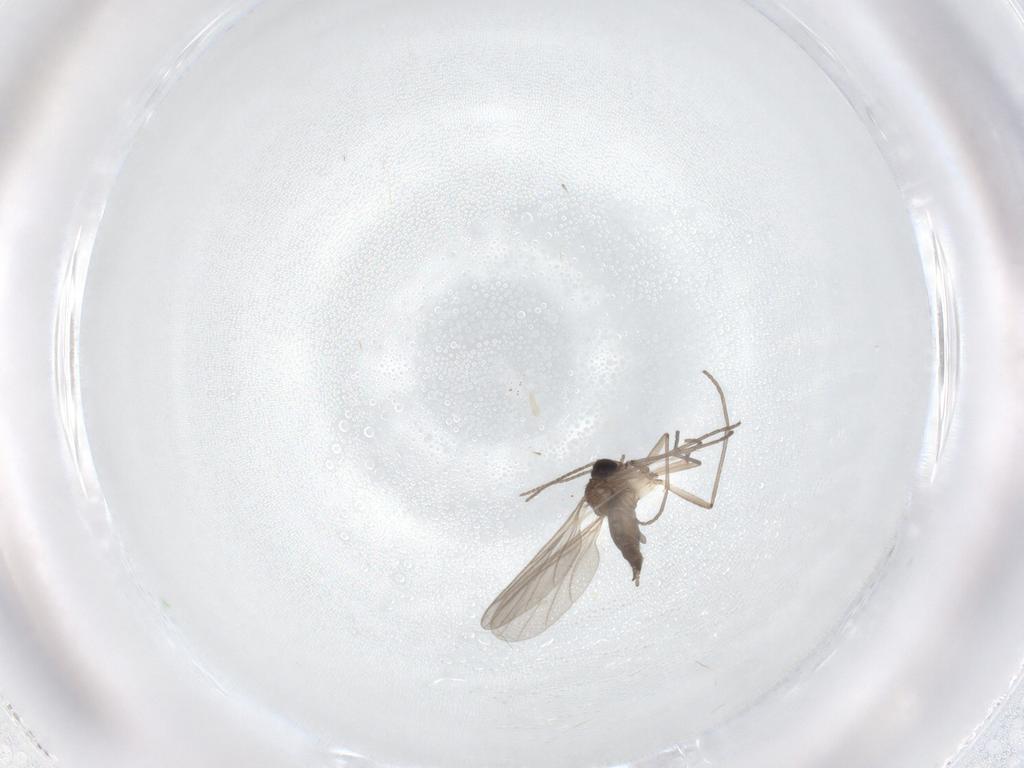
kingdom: Animalia
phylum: Arthropoda
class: Insecta
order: Diptera
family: Sciaridae
